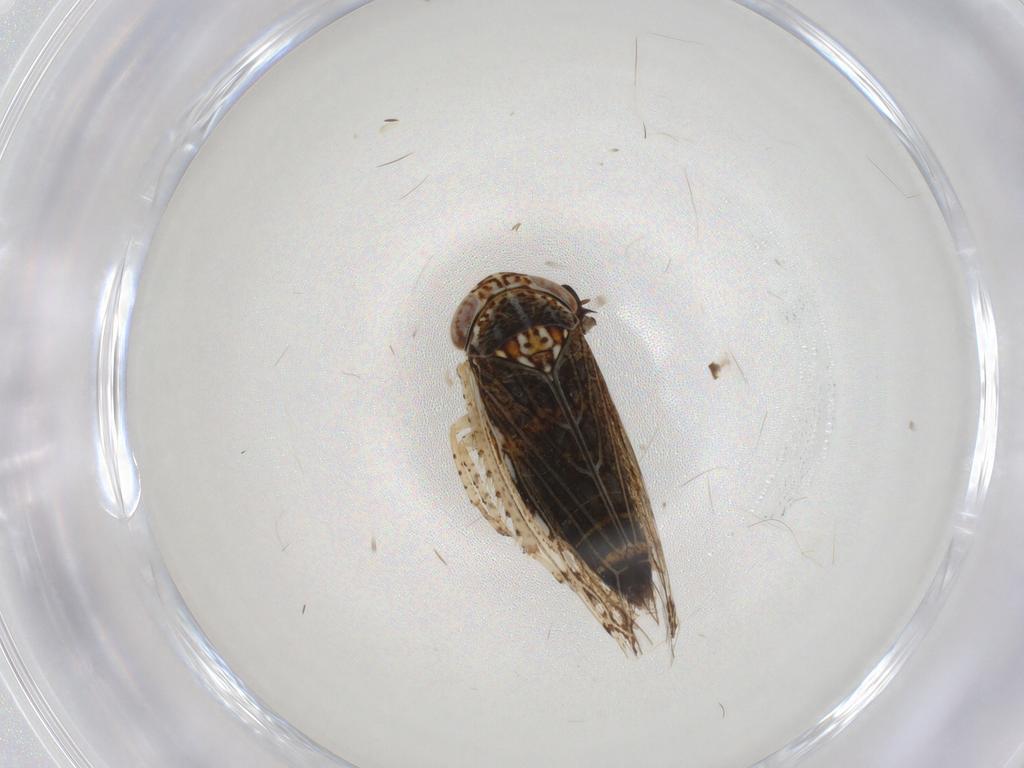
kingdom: Animalia
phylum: Arthropoda
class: Insecta
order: Hemiptera
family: Cicadellidae
